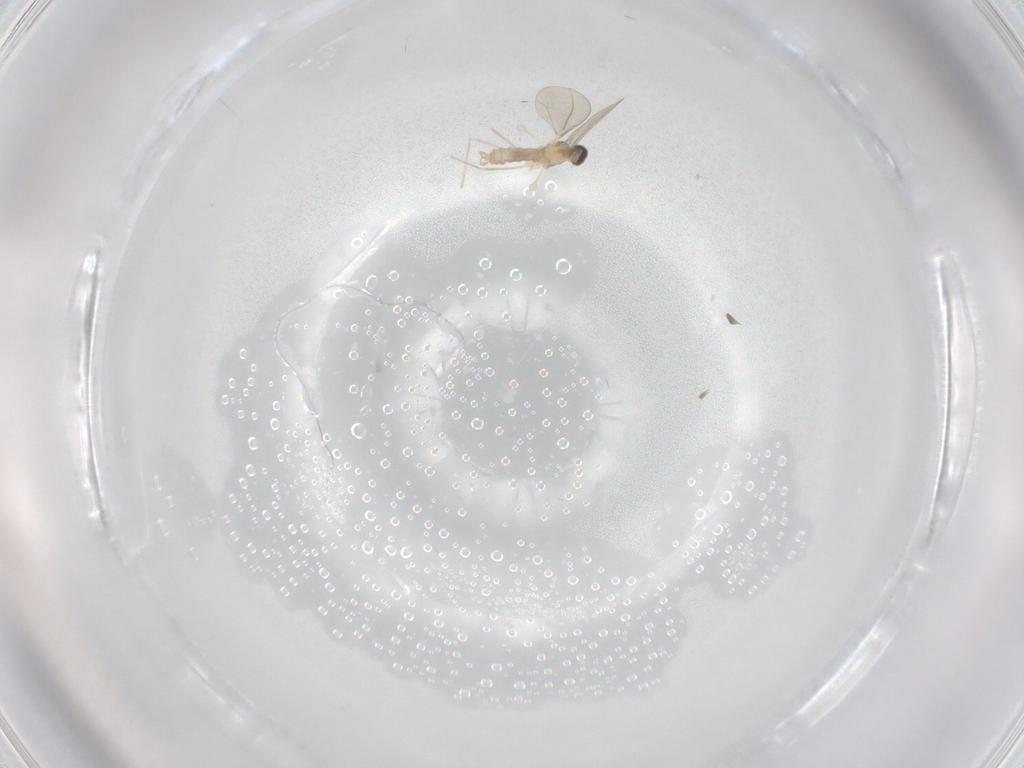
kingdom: Animalia
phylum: Arthropoda
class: Insecta
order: Diptera
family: Cecidomyiidae
